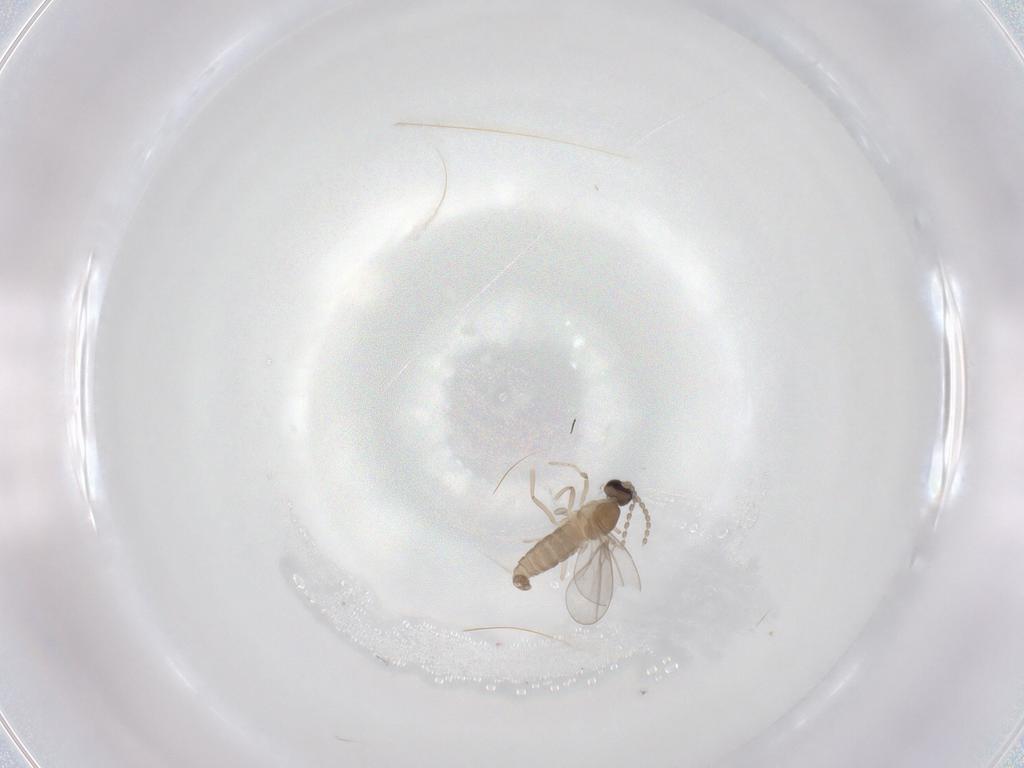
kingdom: Animalia
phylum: Arthropoda
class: Insecta
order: Diptera
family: Cecidomyiidae
